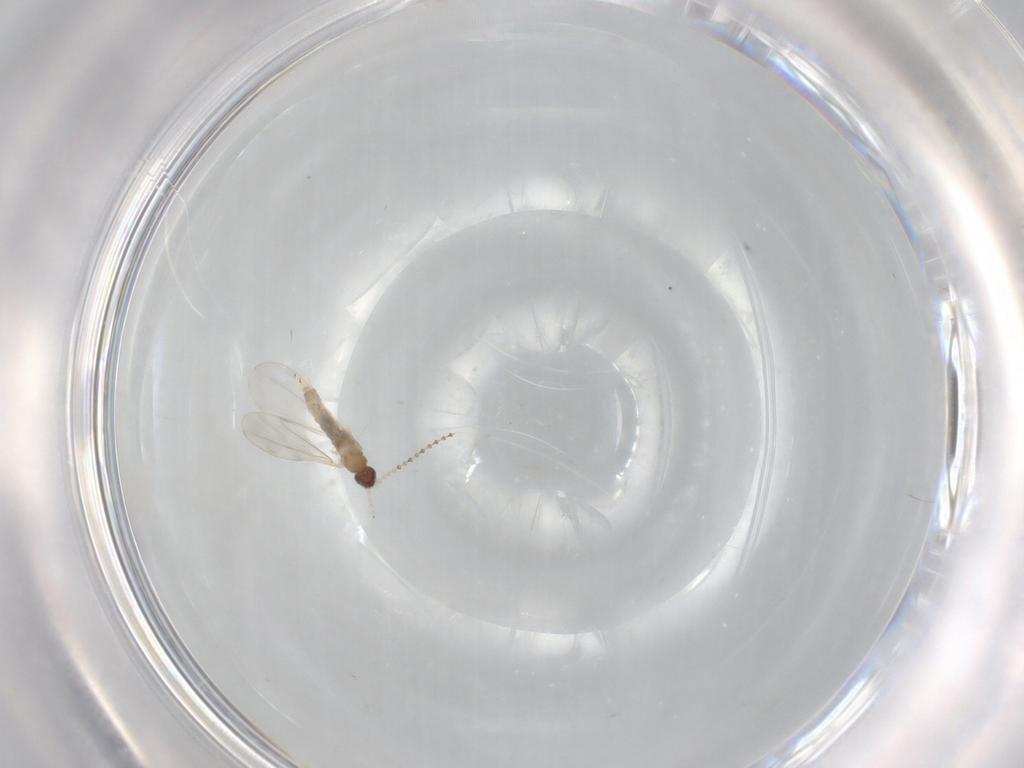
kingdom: Animalia
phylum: Arthropoda
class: Insecta
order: Diptera
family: Cecidomyiidae
